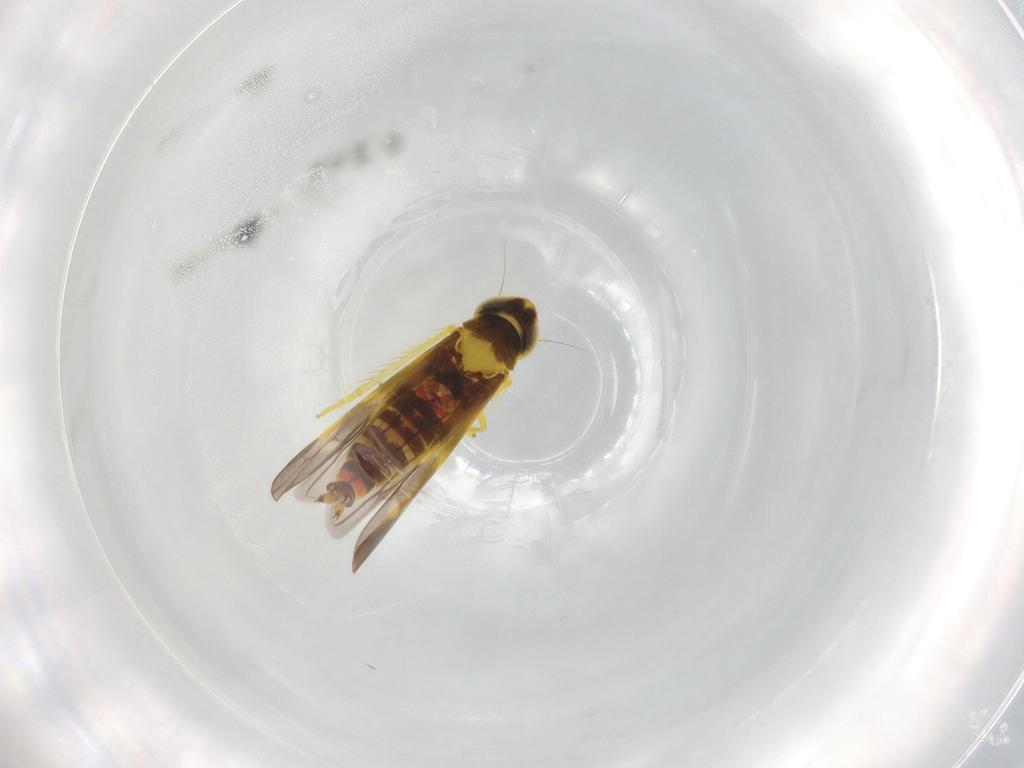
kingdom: Animalia
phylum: Arthropoda
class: Insecta
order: Hemiptera
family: Cicadellidae
